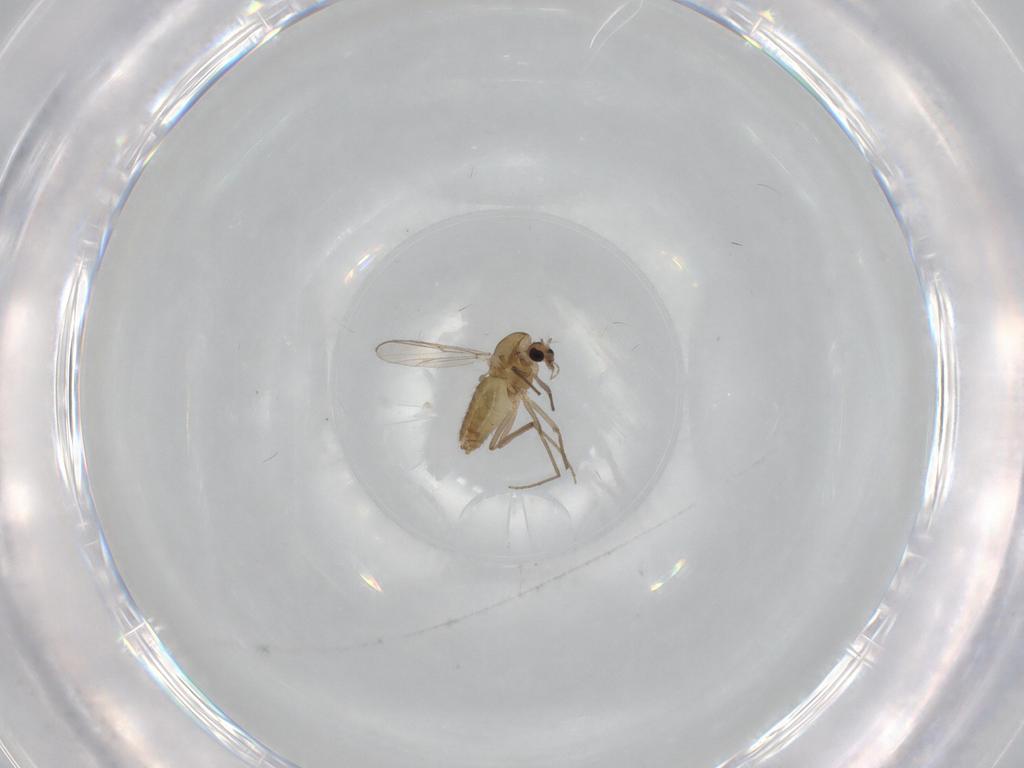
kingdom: Animalia
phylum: Arthropoda
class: Insecta
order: Diptera
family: Chironomidae
